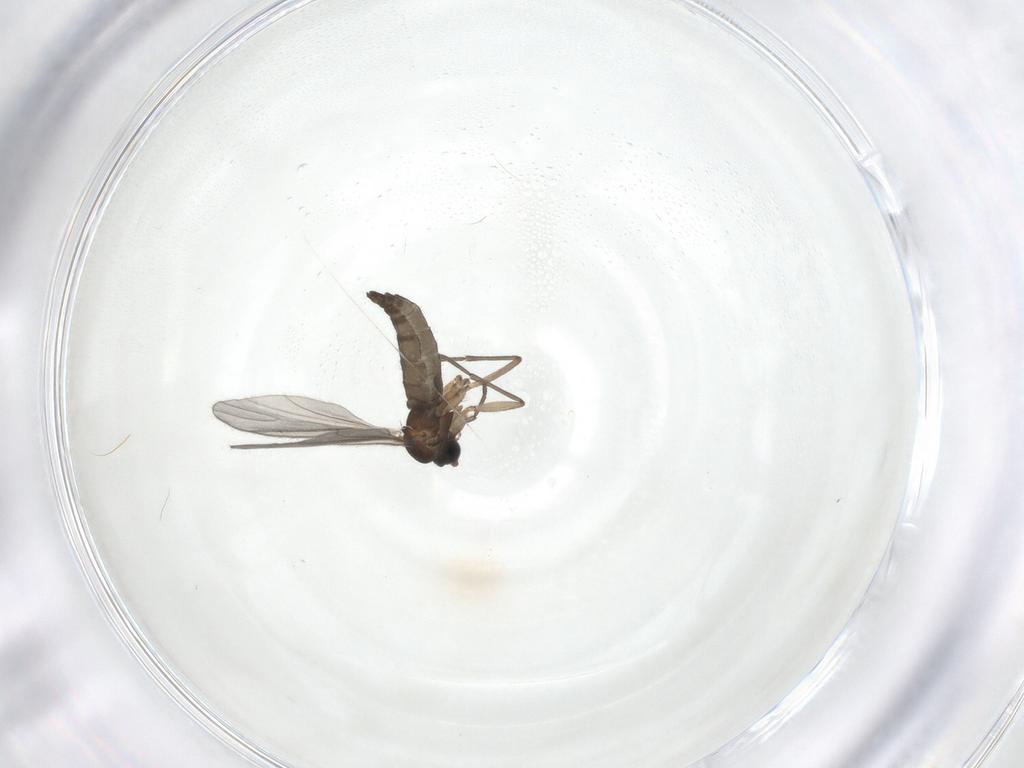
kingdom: Animalia
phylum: Arthropoda
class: Insecta
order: Diptera
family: Sciaridae
